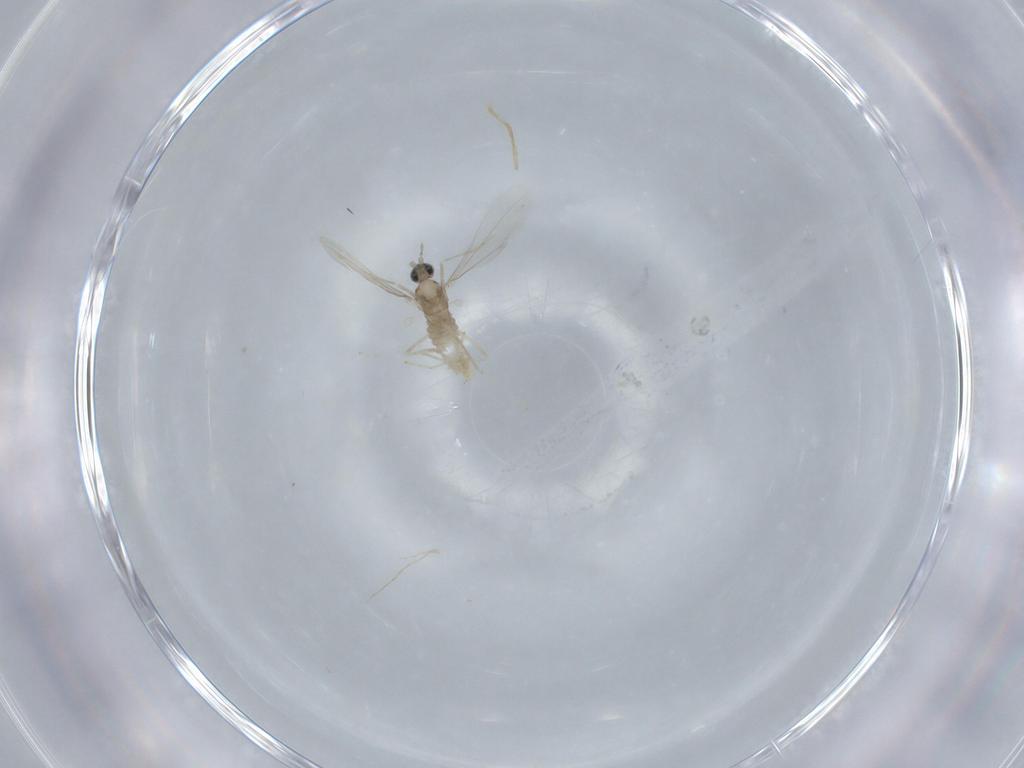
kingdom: Animalia
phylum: Arthropoda
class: Insecta
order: Diptera
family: Cecidomyiidae
